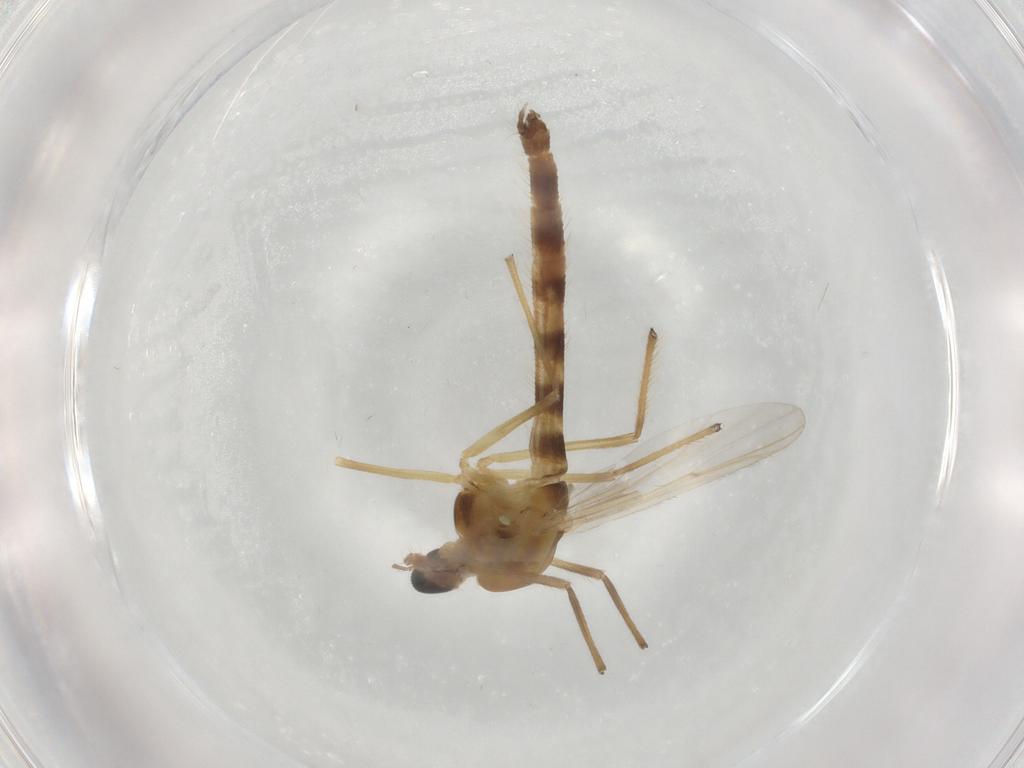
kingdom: Animalia
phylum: Arthropoda
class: Insecta
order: Diptera
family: Chironomidae
